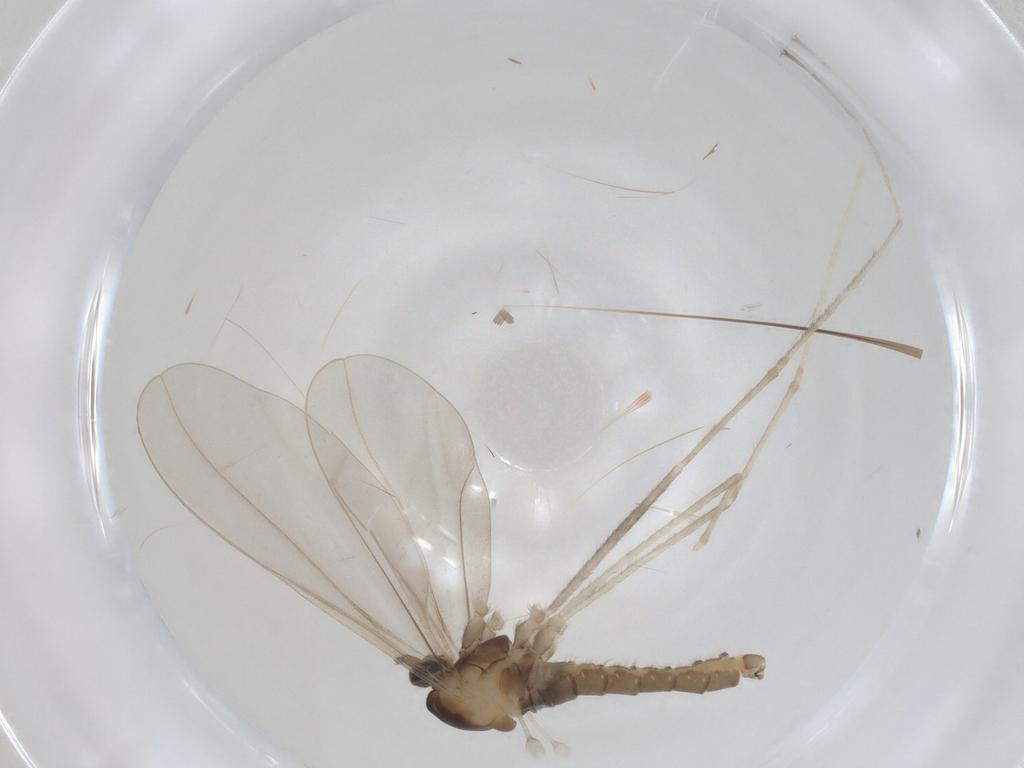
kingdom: Animalia
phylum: Arthropoda
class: Insecta
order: Diptera
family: Cecidomyiidae
